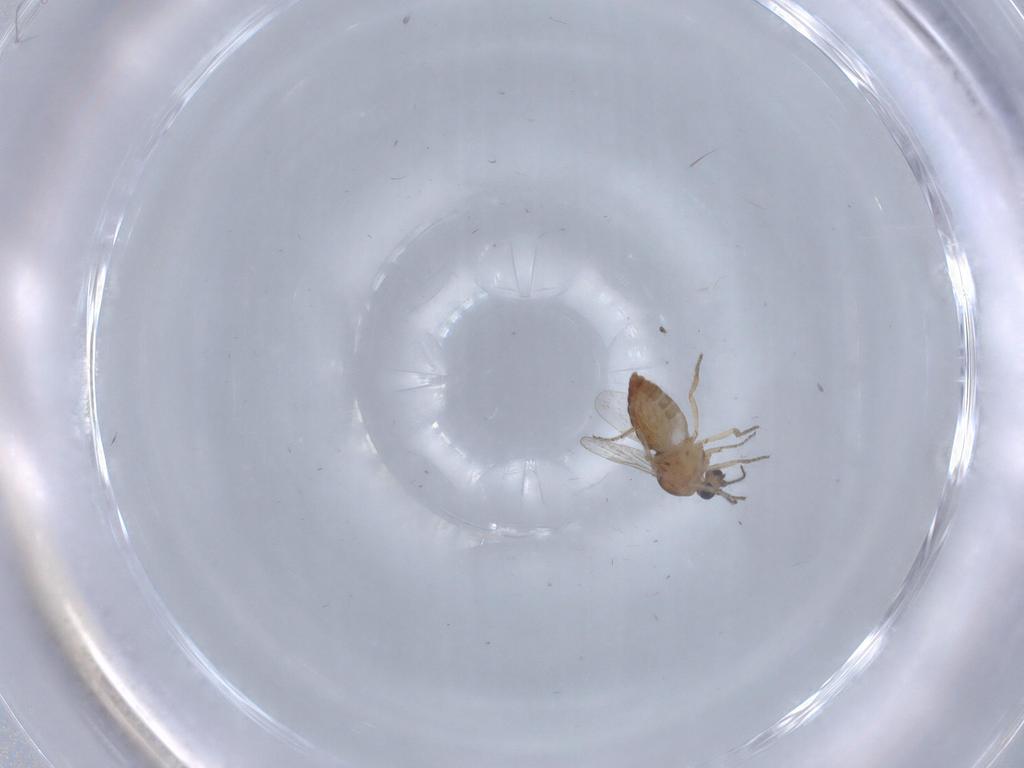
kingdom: Animalia
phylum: Arthropoda
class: Insecta
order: Diptera
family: Ceratopogonidae
